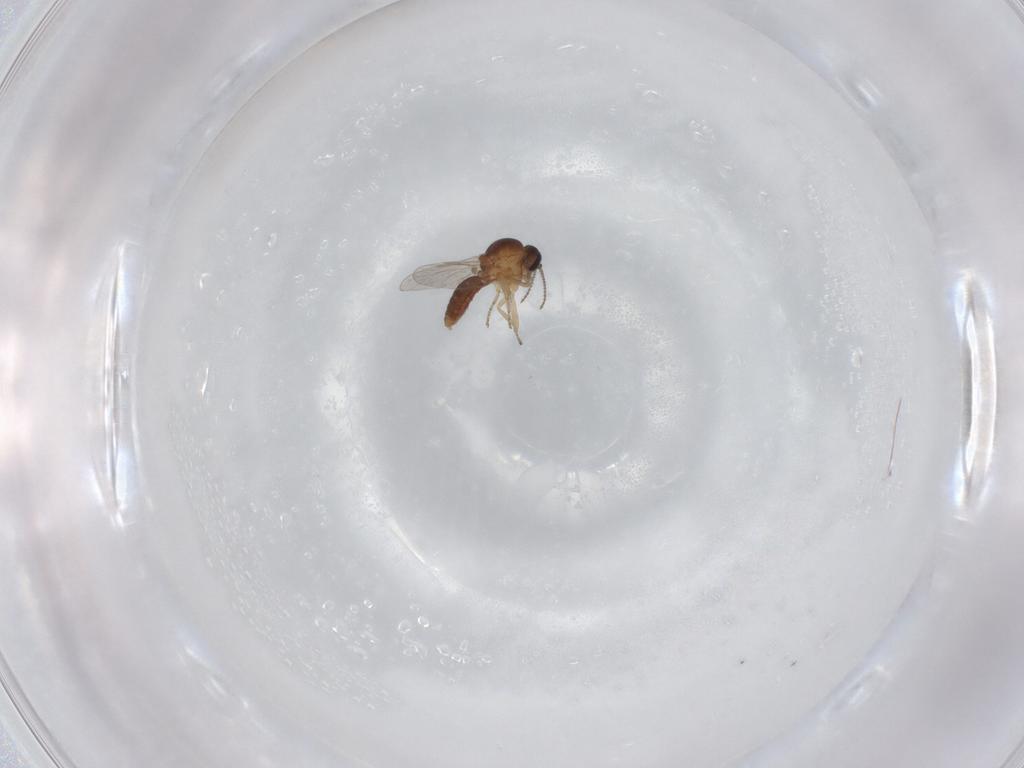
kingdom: Animalia
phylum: Arthropoda
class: Insecta
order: Diptera
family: Ceratopogonidae
